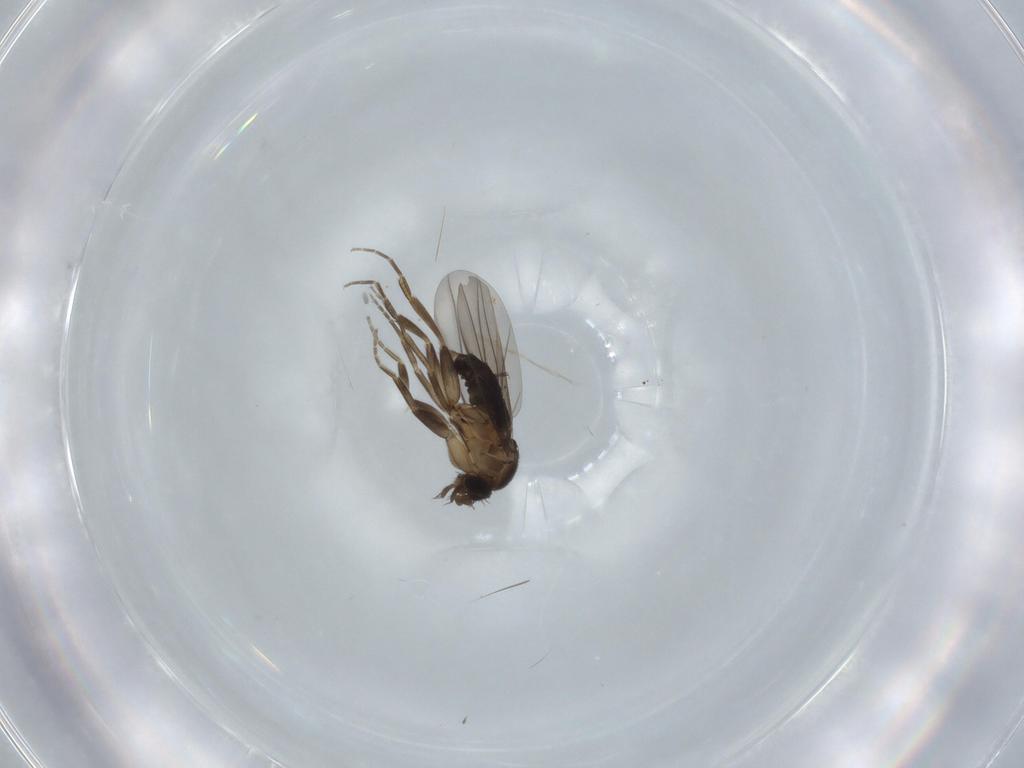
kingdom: Animalia
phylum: Arthropoda
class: Insecta
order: Diptera
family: Phoridae
